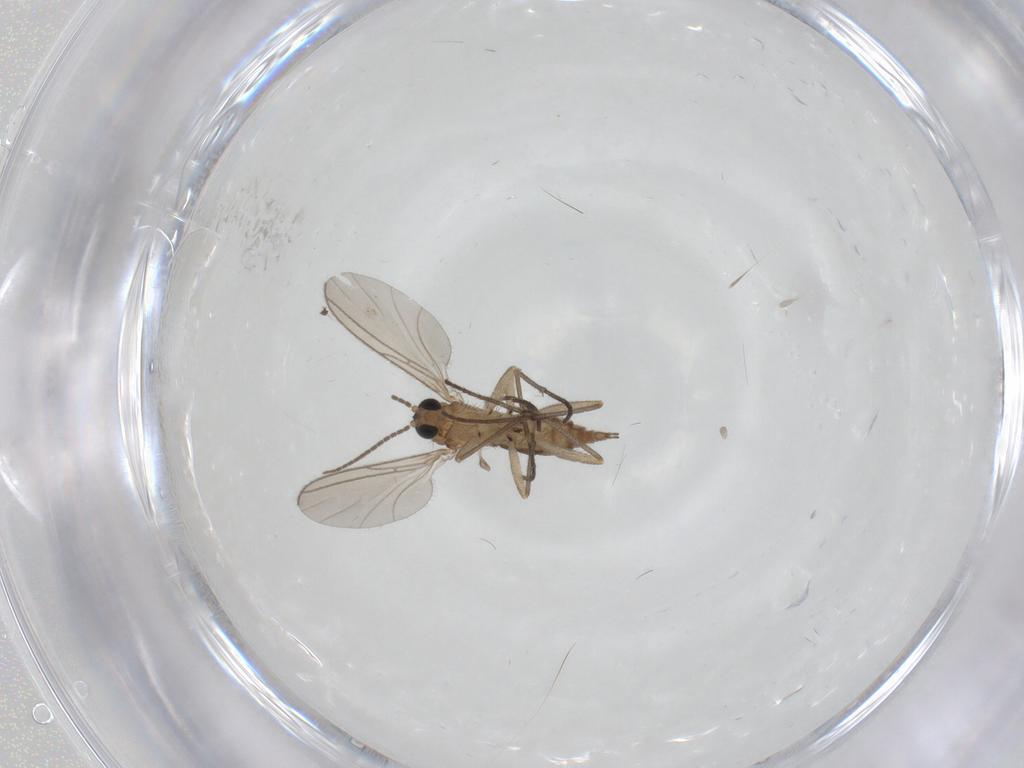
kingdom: Animalia
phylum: Arthropoda
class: Insecta
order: Diptera
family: Sciaridae
